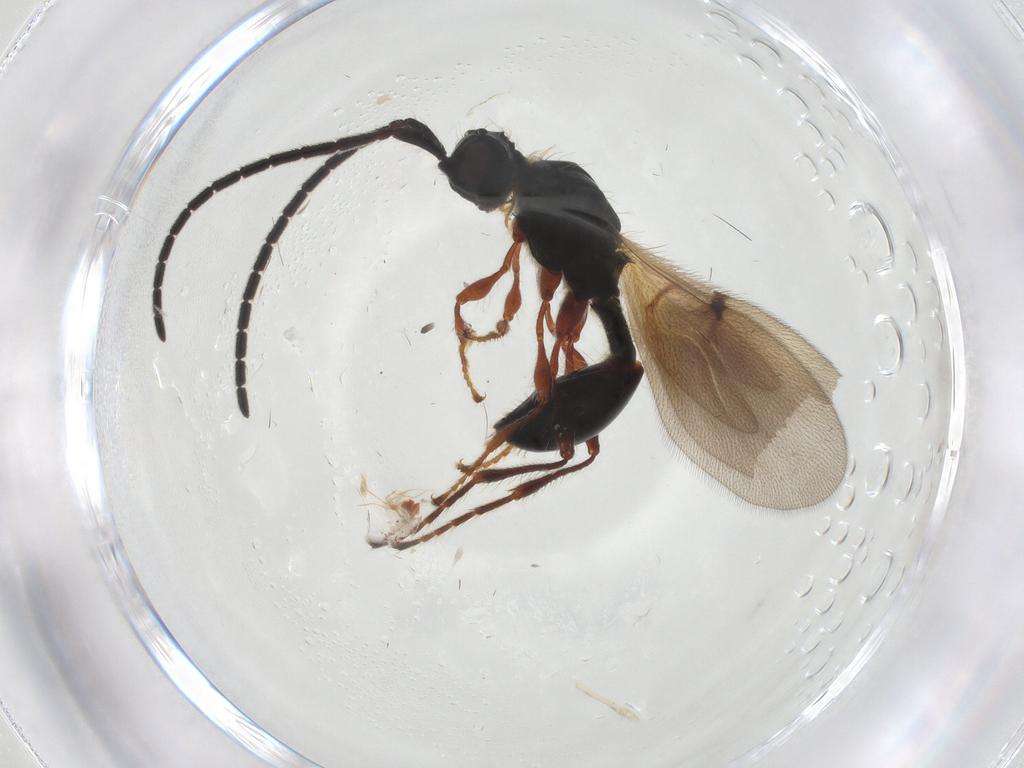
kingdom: Animalia
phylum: Arthropoda
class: Insecta
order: Hymenoptera
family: Diapriidae
